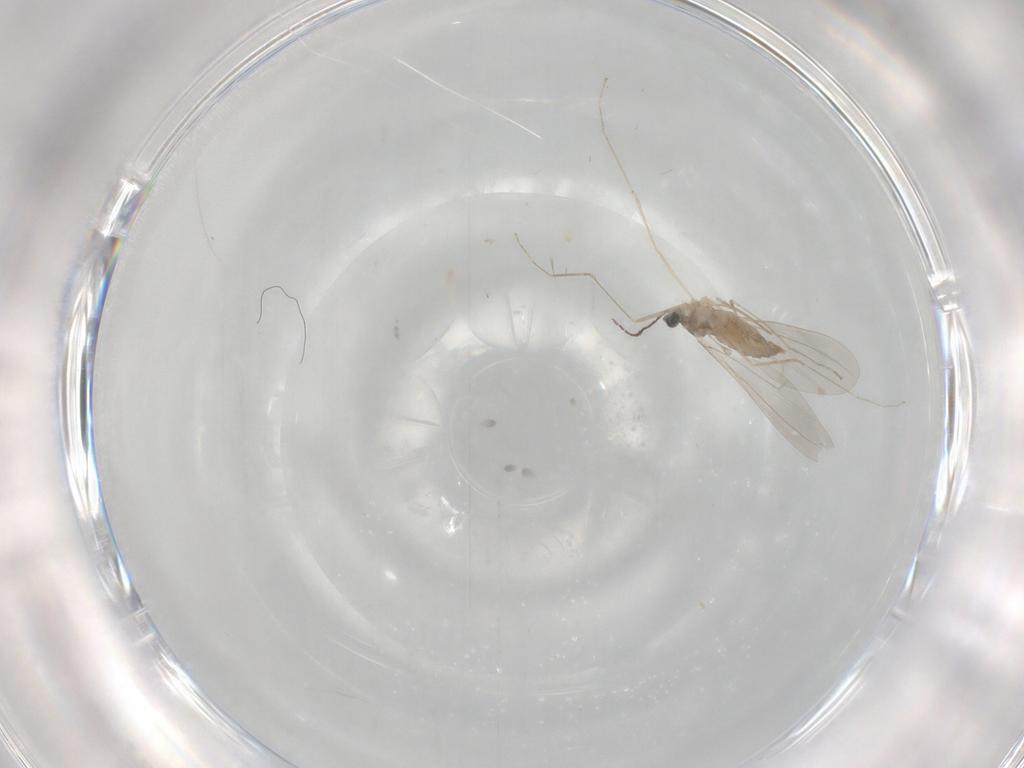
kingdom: Animalia
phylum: Arthropoda
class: Insecta
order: Diptera
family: Cecidomyiidae
